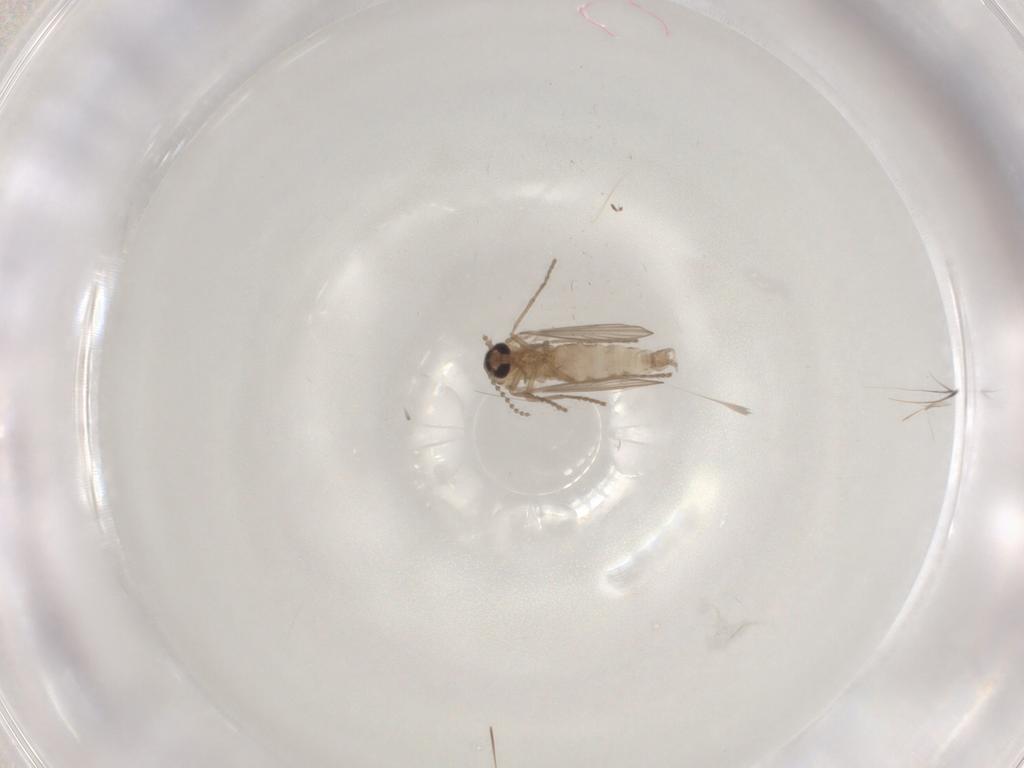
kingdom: Animalia
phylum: Arthropoda
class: Insecta
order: Diptera
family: Psychodidae
